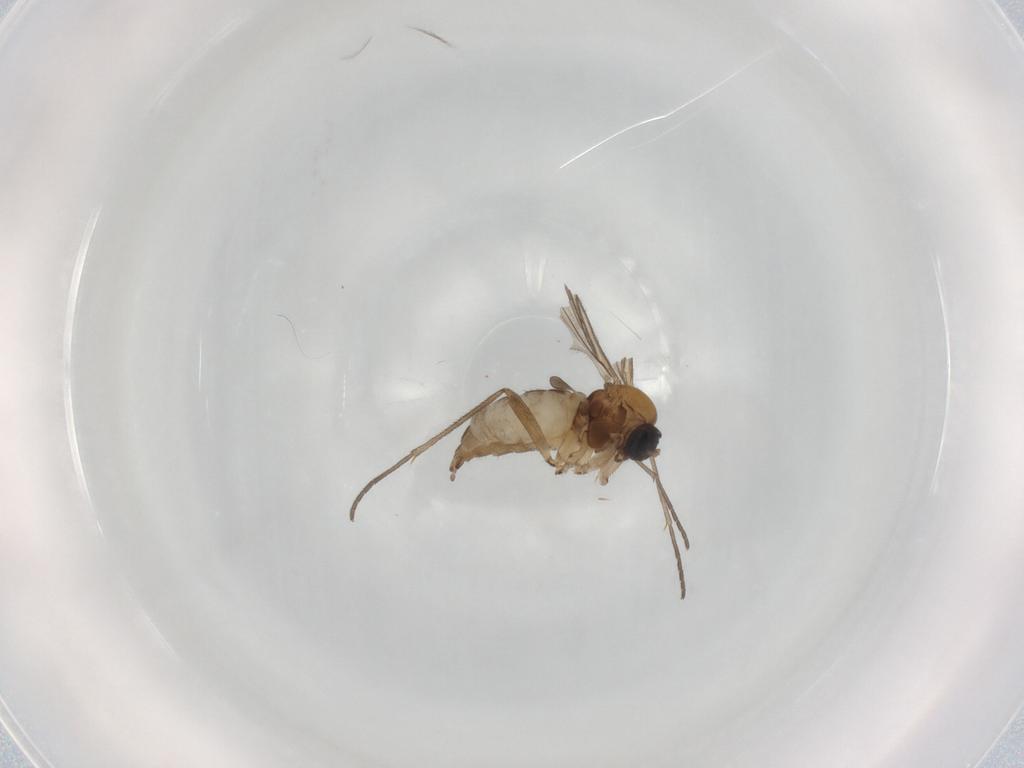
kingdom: Animalia
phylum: Arthropoda
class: Insecta
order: Diptera
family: Sciaridae
